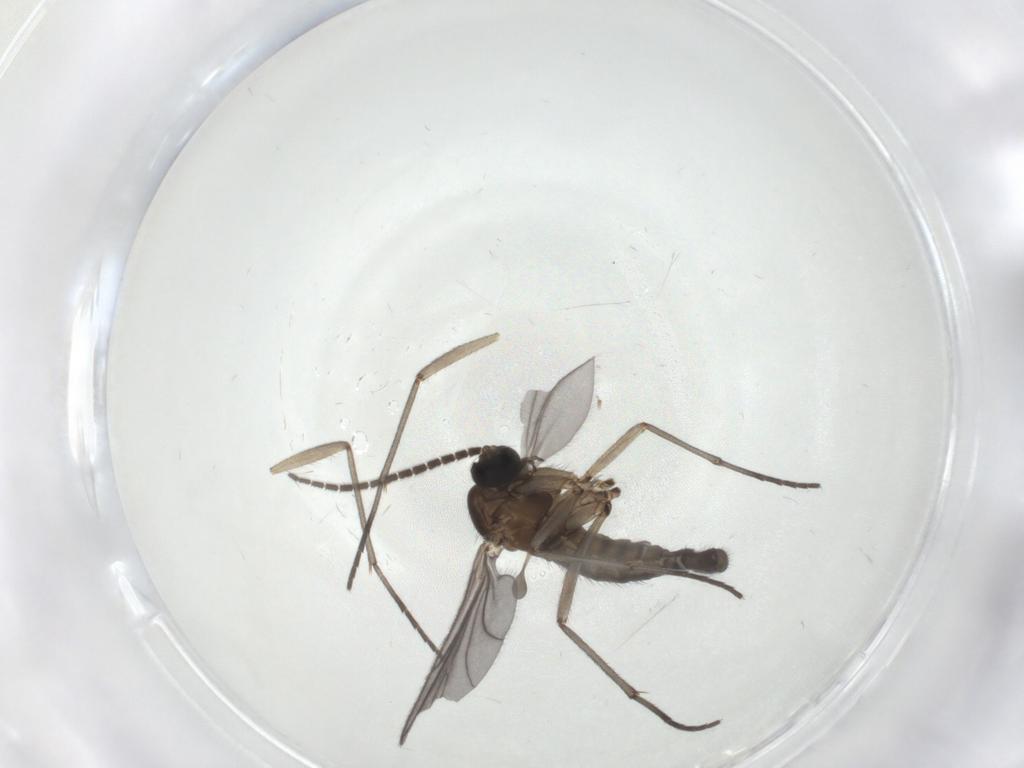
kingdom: Animalia
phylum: Arthropoda
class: Insecta
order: Diptera
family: Sciaridae
